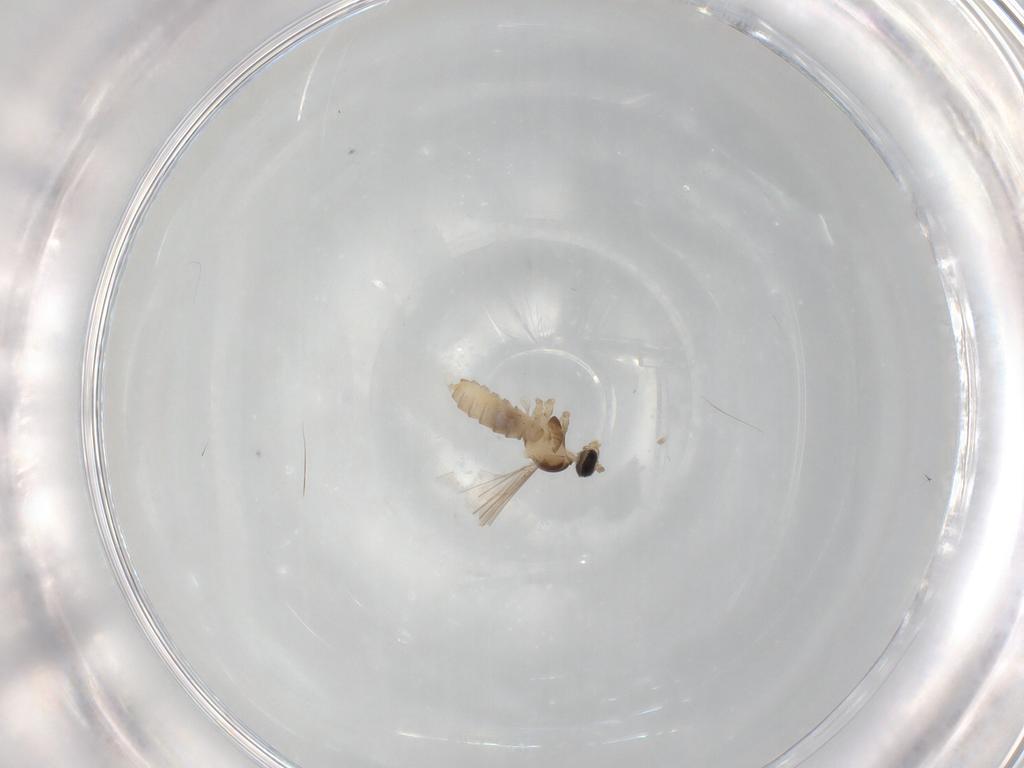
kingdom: Animalia
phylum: Arthropoda
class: Insecta
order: Diptera
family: Cecidomyiidae
